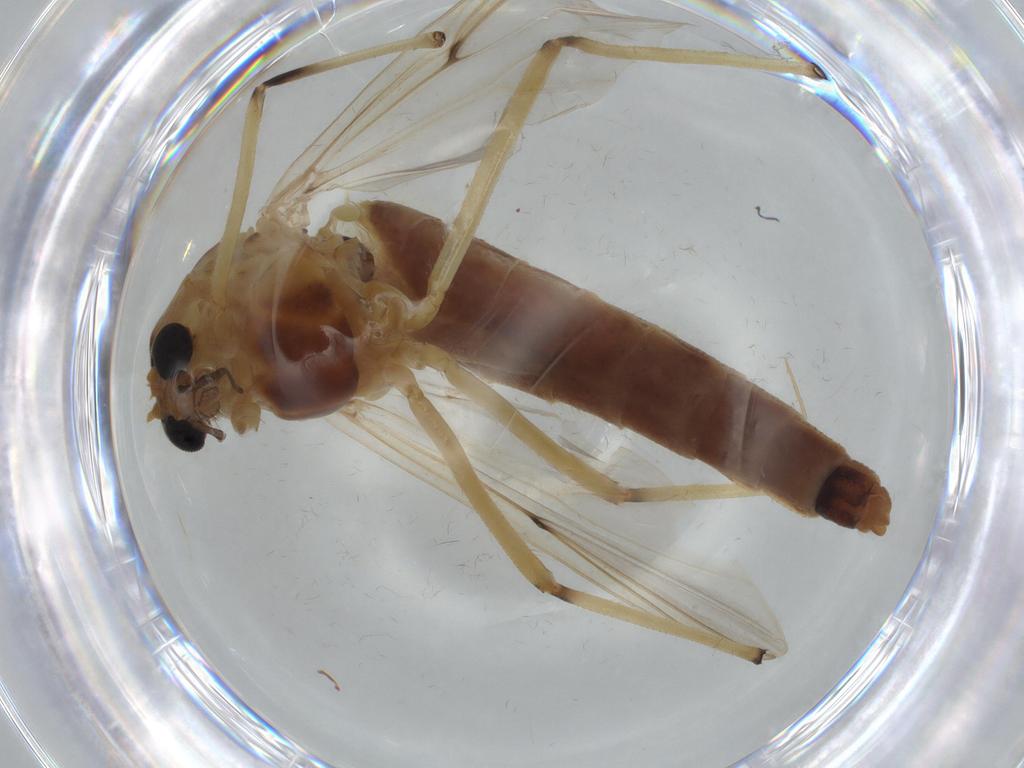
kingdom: Animalia
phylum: Arthropoda
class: Insecta
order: Diptera
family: Chironomidae
